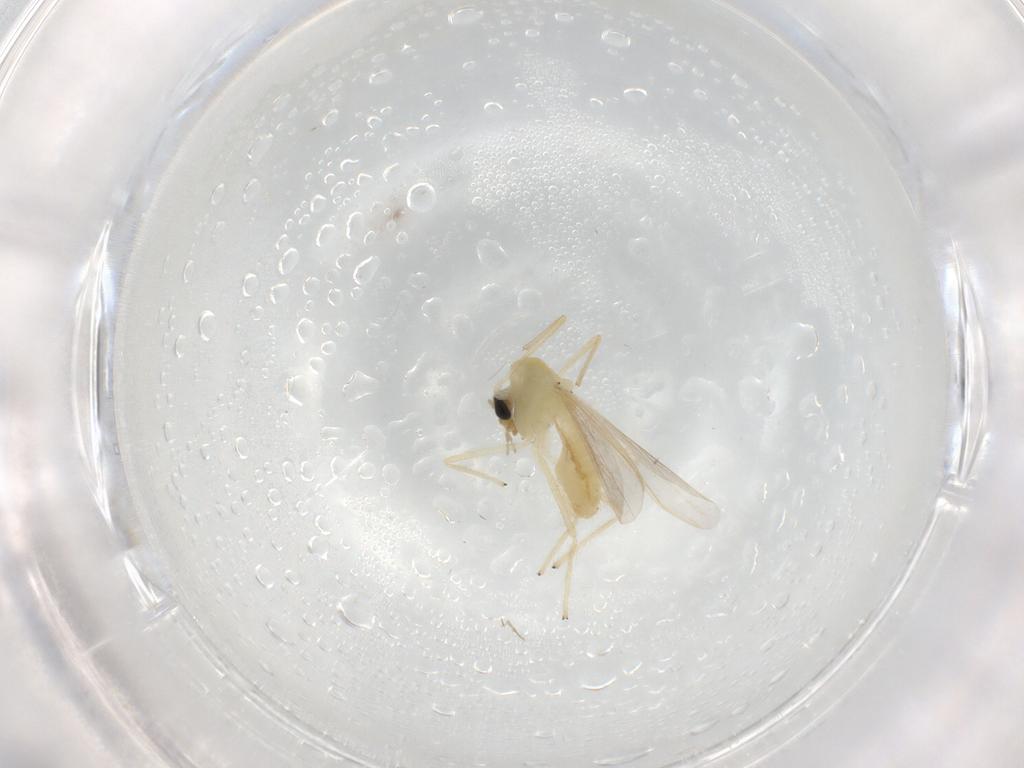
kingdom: Animalia
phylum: Arthropoda
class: Insecta
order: Diptera
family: Chironomidae
